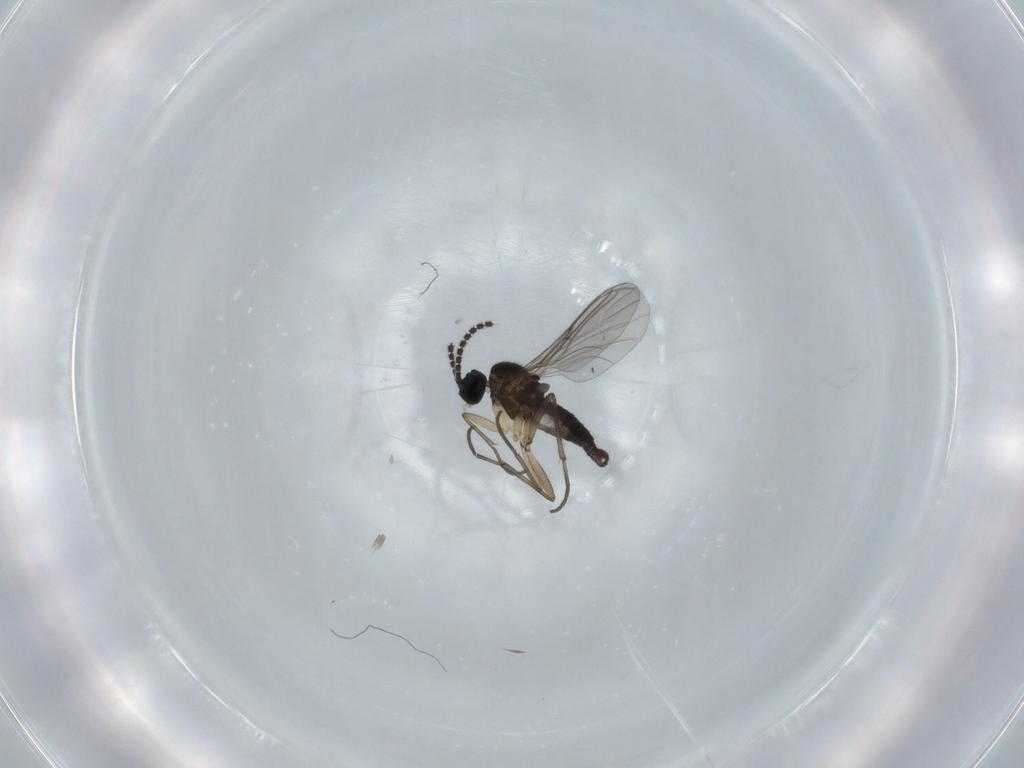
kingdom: Animalia
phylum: Arthropoda
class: Insecta
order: Diptera
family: Sciaridae
